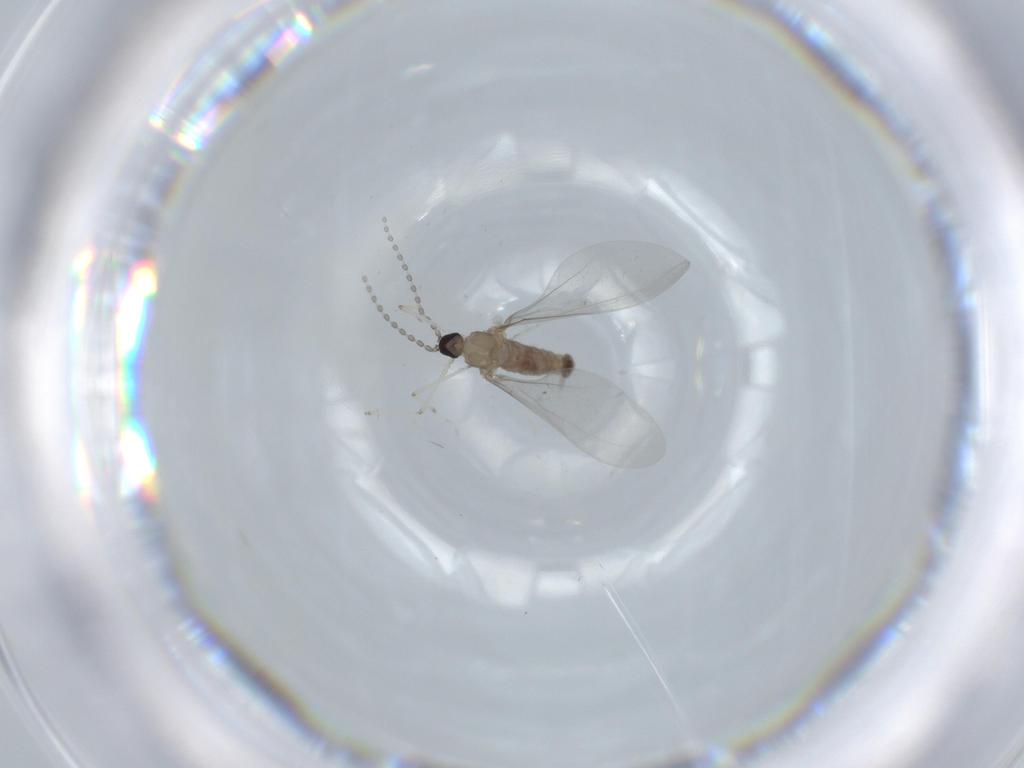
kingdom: Animalia
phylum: Arthropoda
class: Insecta
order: Diptera
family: Cecidomyiidae
